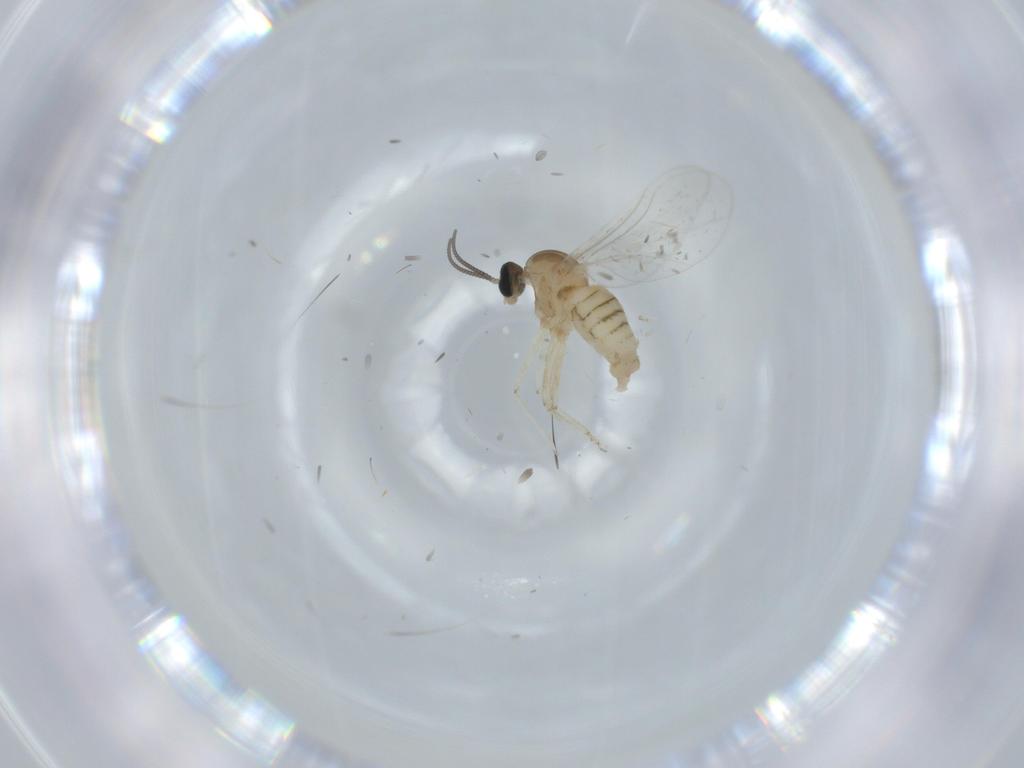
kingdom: Animalia
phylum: Arthropoda
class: Insecta
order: Diptera
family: Cecidomyiidae
